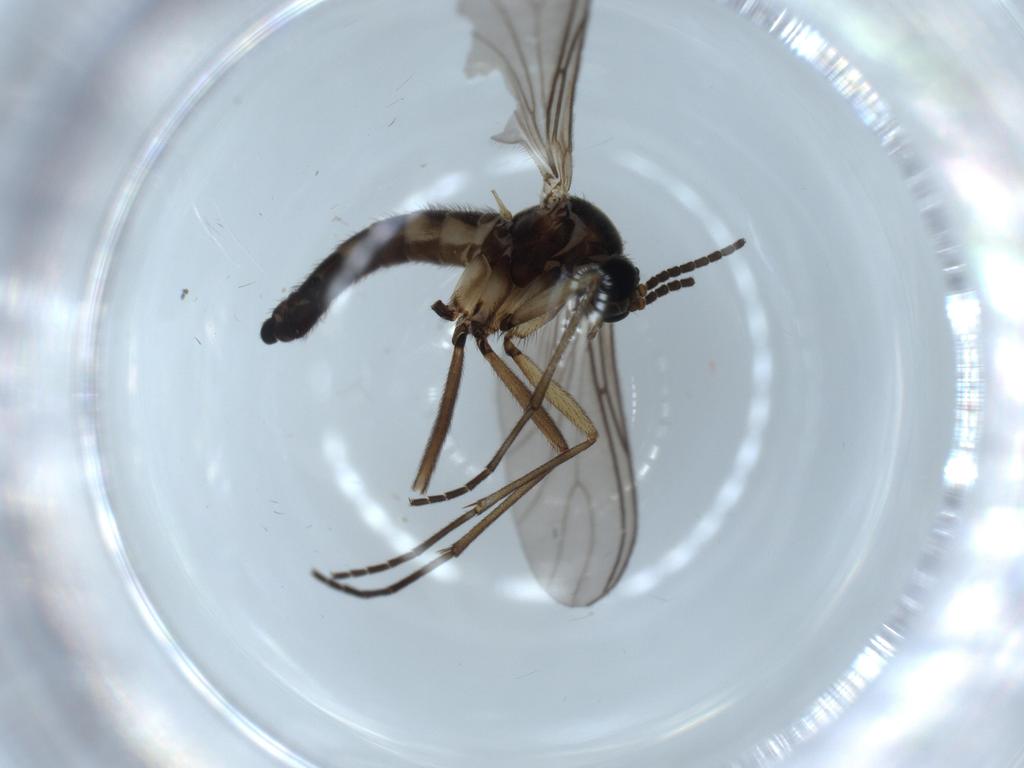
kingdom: Animalia
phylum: Arthropoda
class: Insecta
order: Diptera
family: Sciaridae
